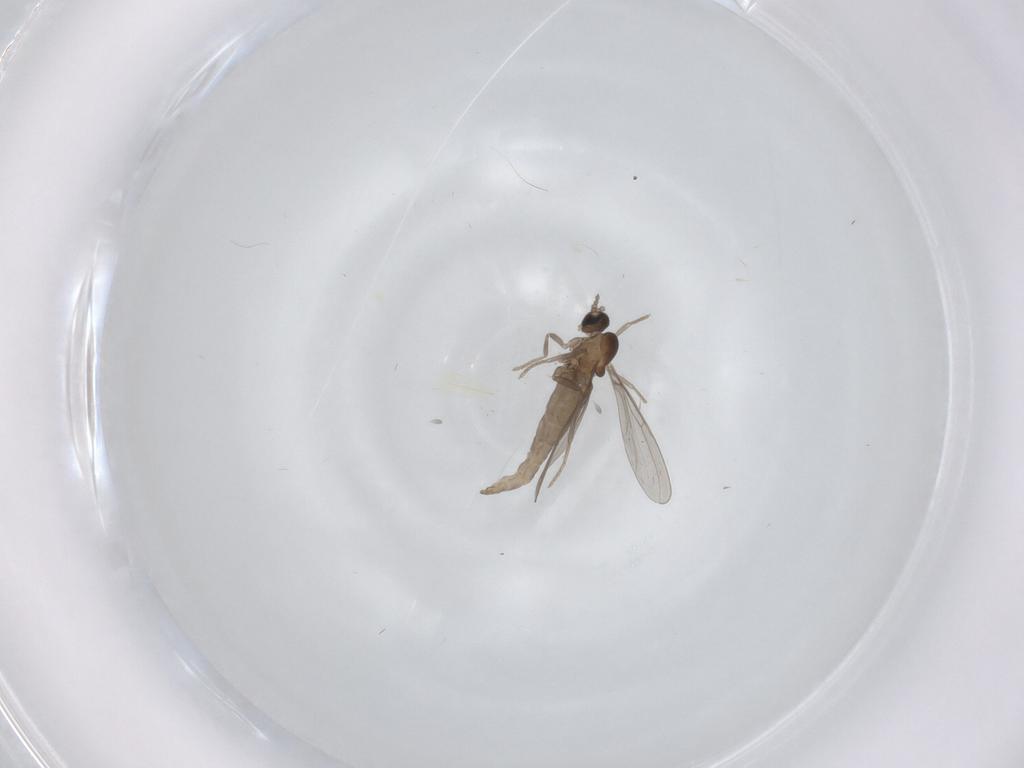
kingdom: Animalia
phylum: Arthropoda
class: Insecta
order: Diptera
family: Cecidomyiidae
